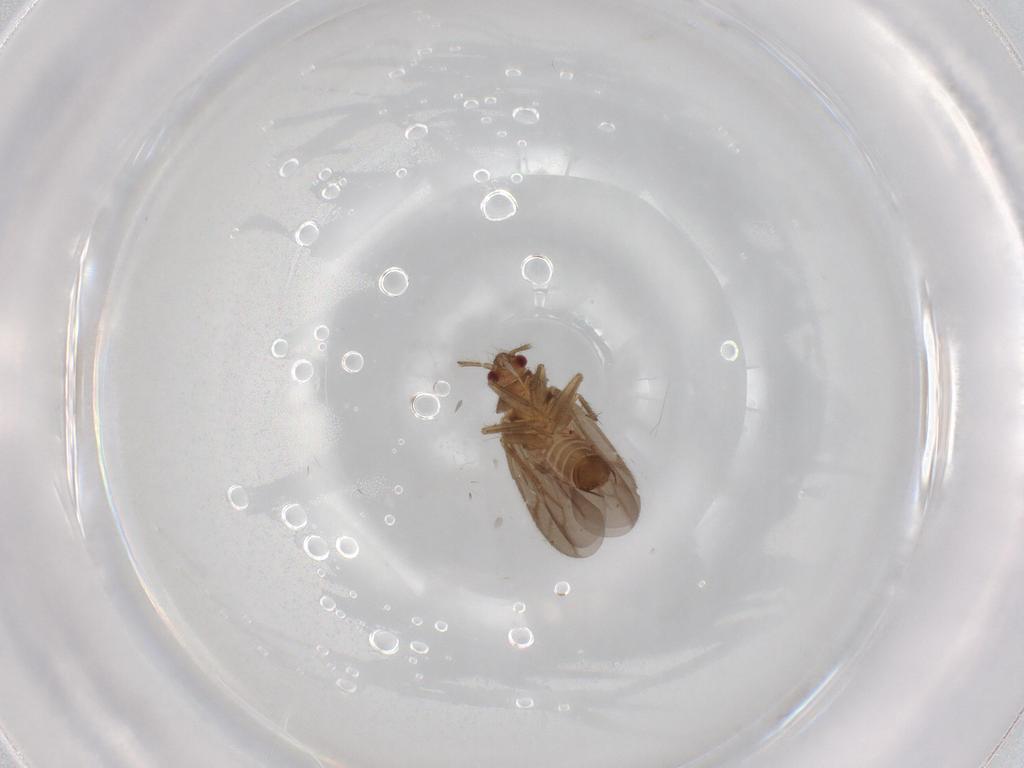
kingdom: Animalia
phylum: Arthropoda
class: Insecta
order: Hemiptera
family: Ceratocombidae
